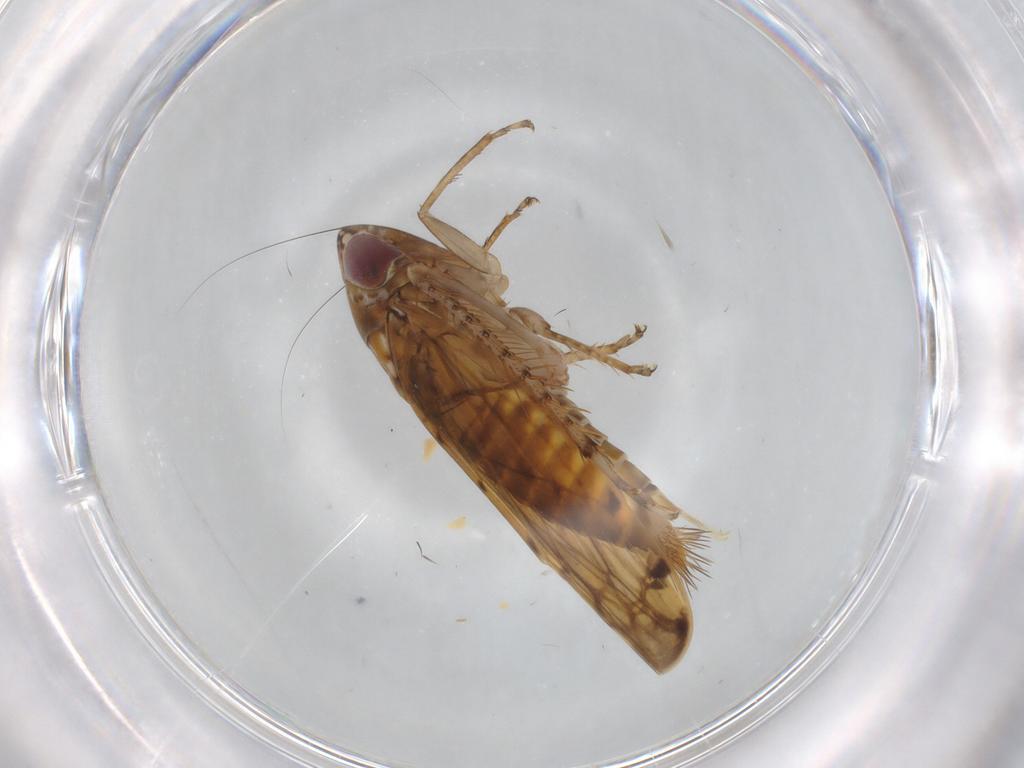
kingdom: Animalia
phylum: Arthropoda
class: Insecta
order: Hemiptera
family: Cicadellidae
